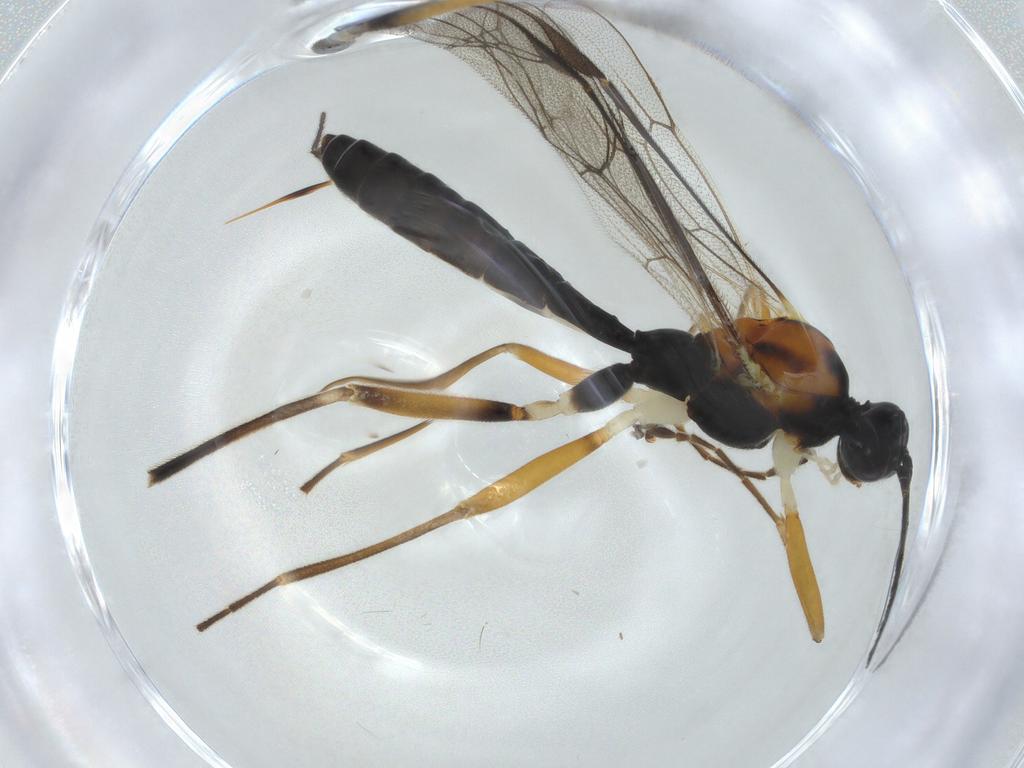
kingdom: Animalia
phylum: Arthropoda
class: Insecta
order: Hymenoptera
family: Ichneumonidae
